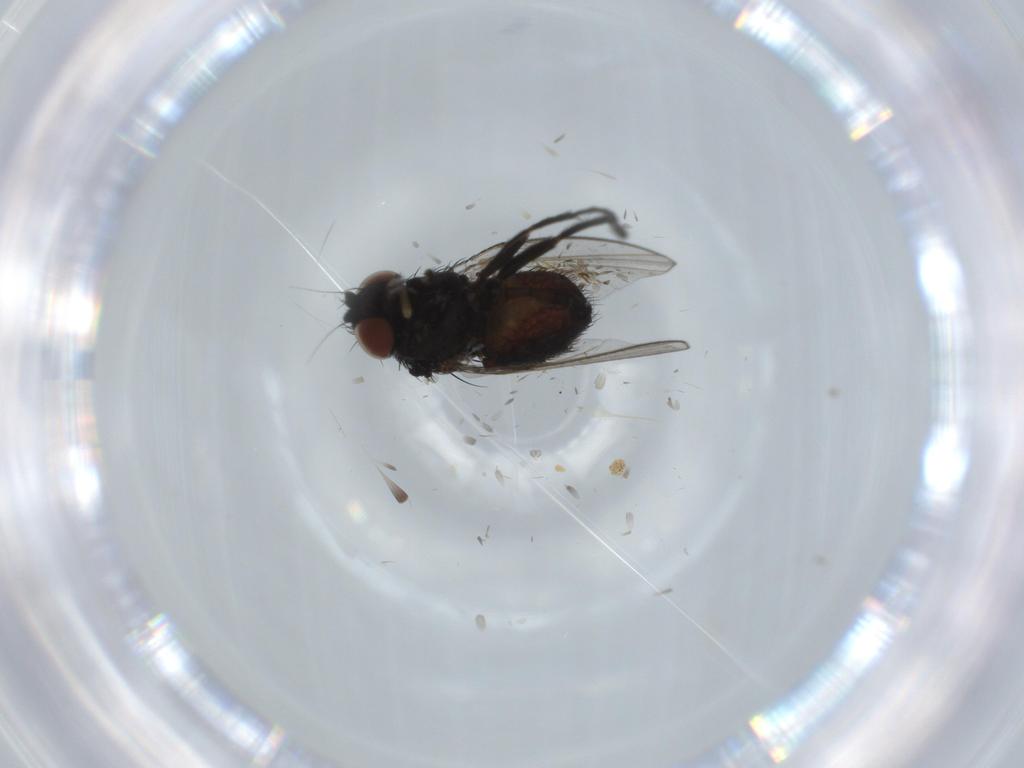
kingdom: Animalia
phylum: Arthropoda
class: Insecta
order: Diptera
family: Milichiidae
